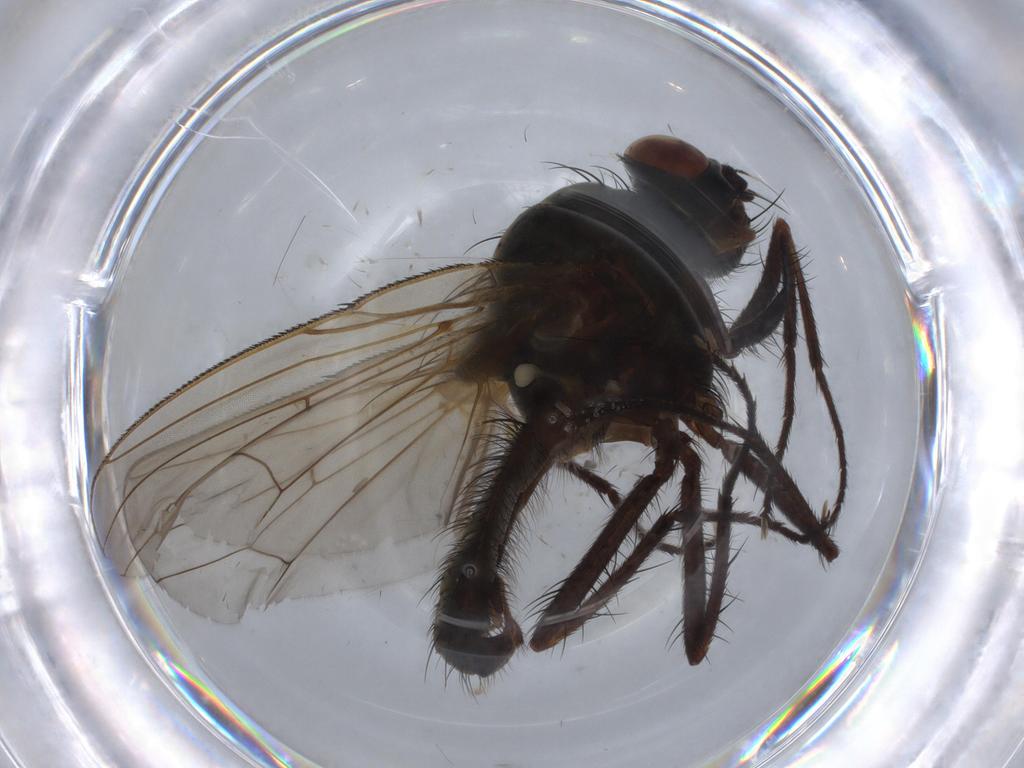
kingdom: Animalia
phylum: Arthropoda
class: Insecta
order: Diptera
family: Anthomyiidae
